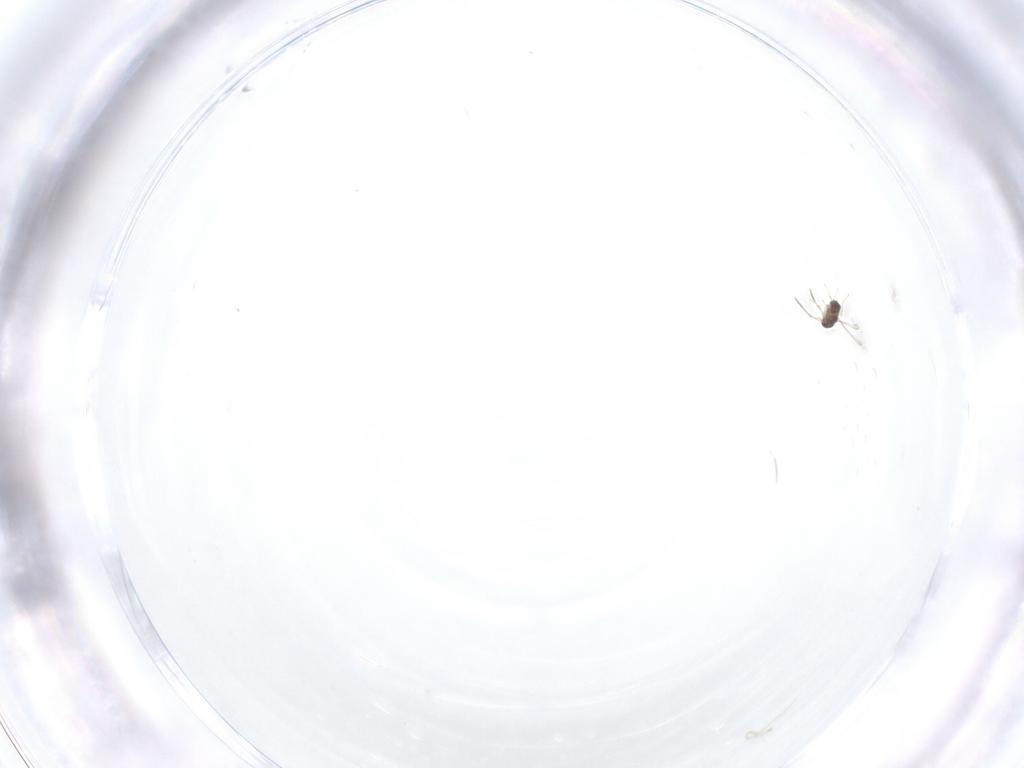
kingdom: Animalia
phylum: Arthropoda
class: Insecta
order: Hymenoptera
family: Mymaridae
